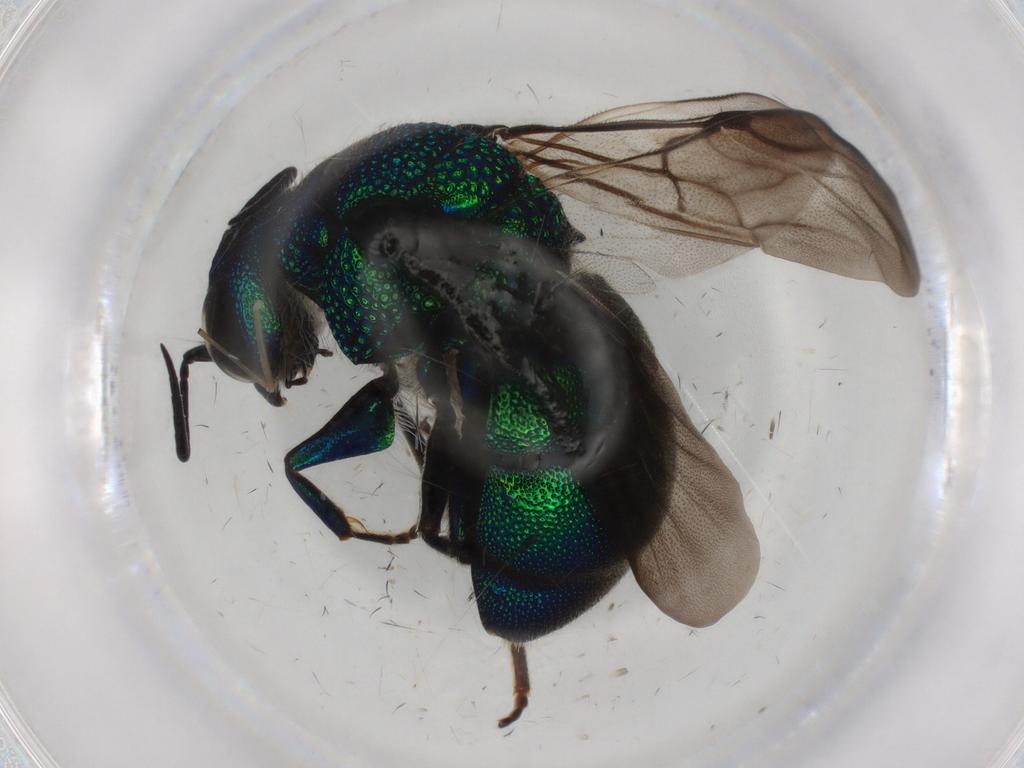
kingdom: Animalia
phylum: Arthropoda
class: Insecta
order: Hymenoptera
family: Chrysididae
